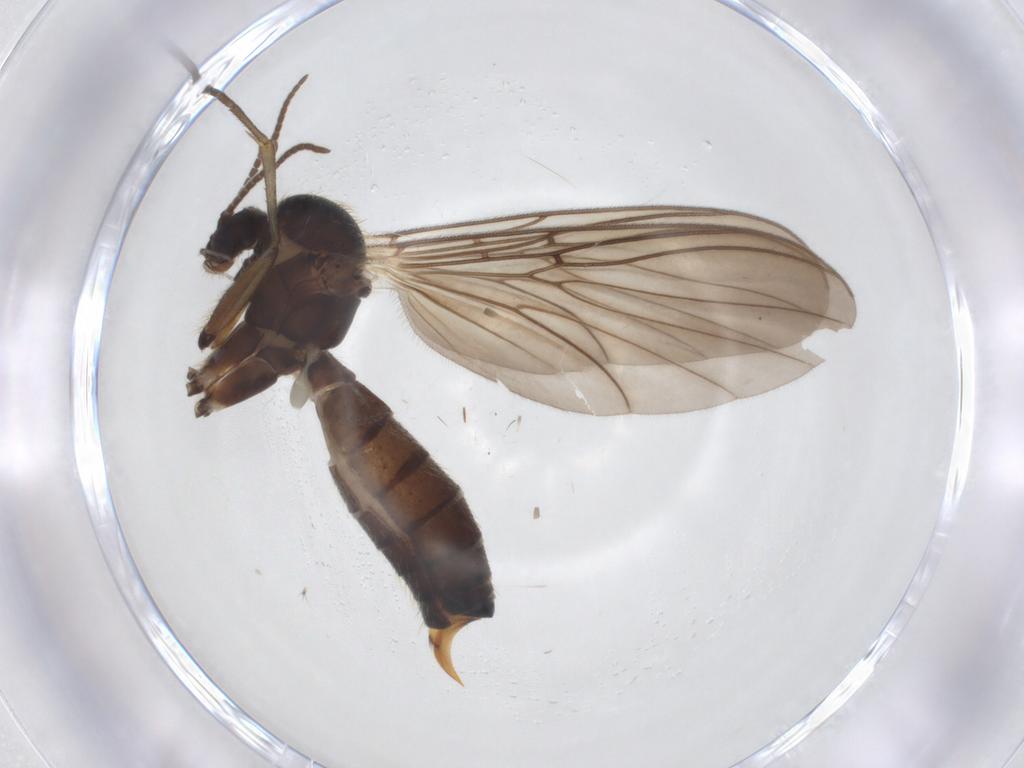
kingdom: Animalia
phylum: Arthropoda
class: Insecta
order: Diptera
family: Mycetophilidae
